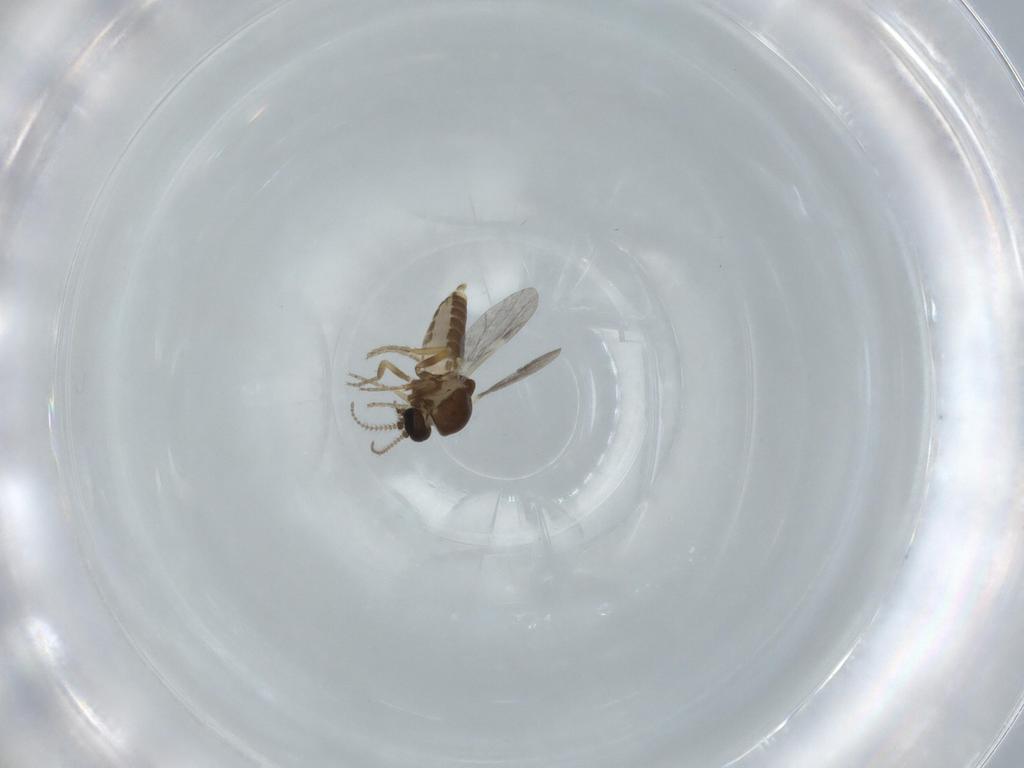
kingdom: Animalia
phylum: Arthropoda
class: Insecta
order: Diptera
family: Ceratopogonidae
